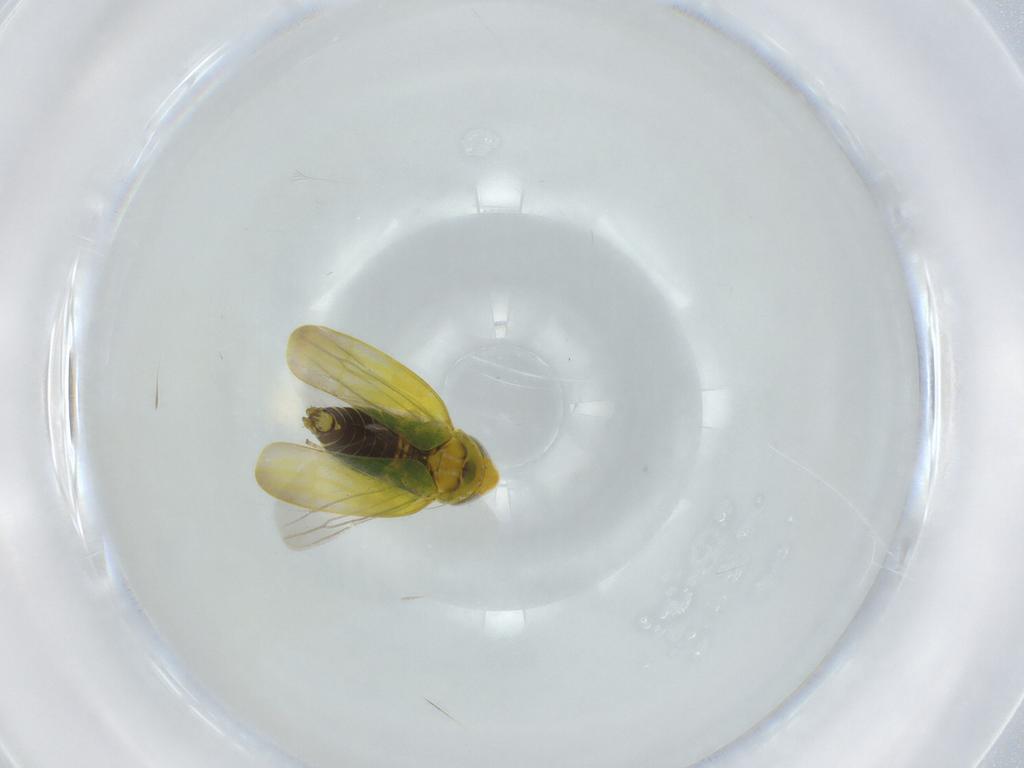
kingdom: Animalia
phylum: Arthropoda
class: Insecta
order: Hemiptera
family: Cicadellidae
